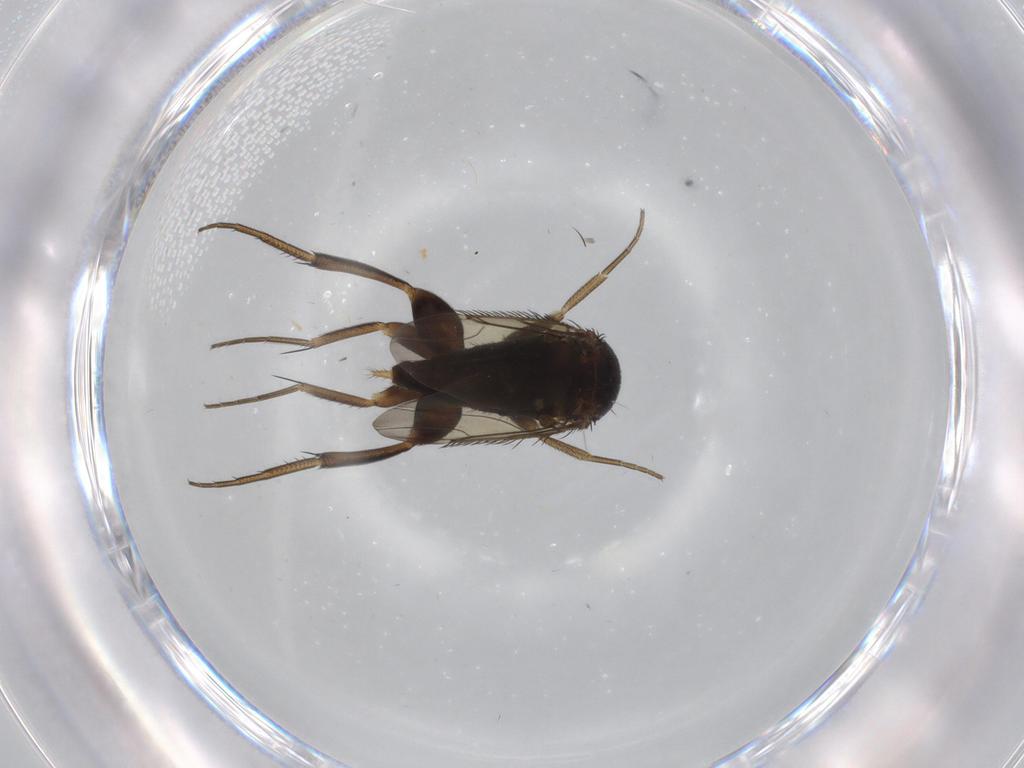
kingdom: Animalia
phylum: Arthropoda
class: Insecta
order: Diptera
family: Phoridae
